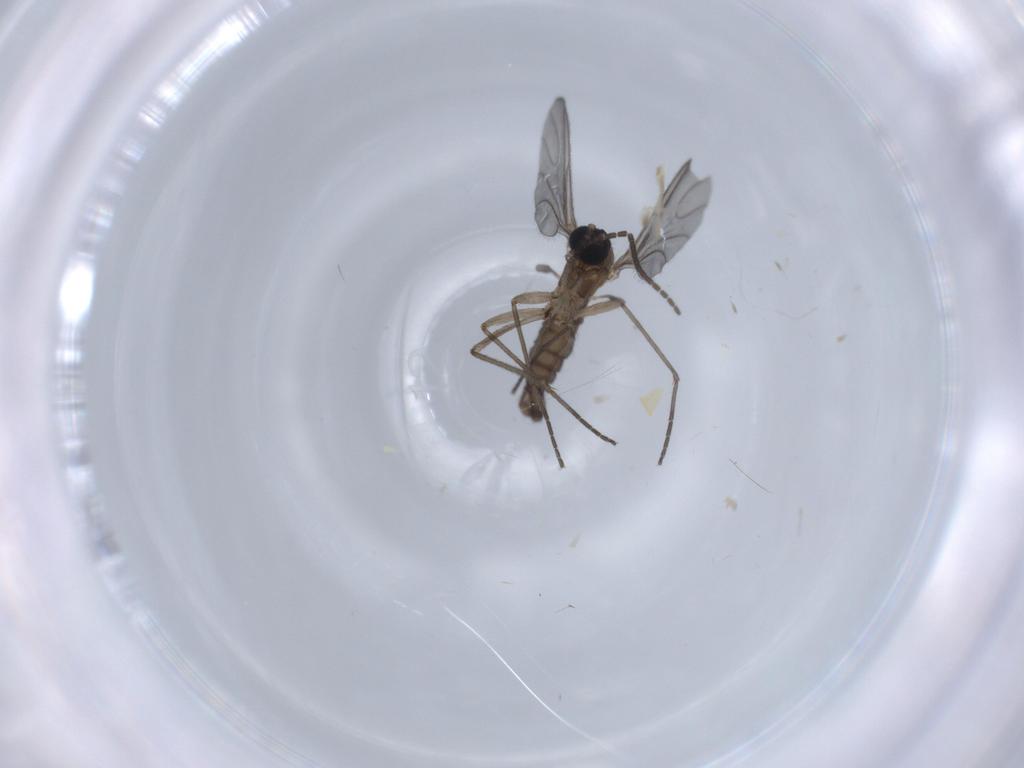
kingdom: Animalia
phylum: Arthropoda
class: Insecta
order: Diptera
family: Sciaridae
